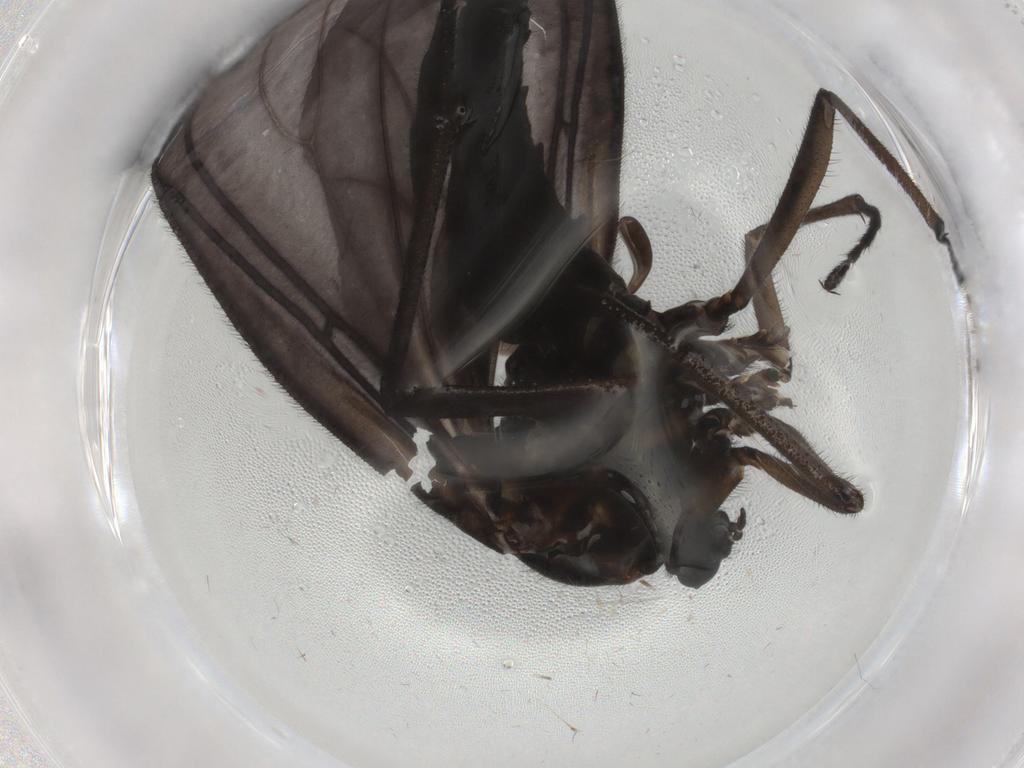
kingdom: Animalia
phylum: Arthropoda
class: Insecta
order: Diptera
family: Sciaridae
